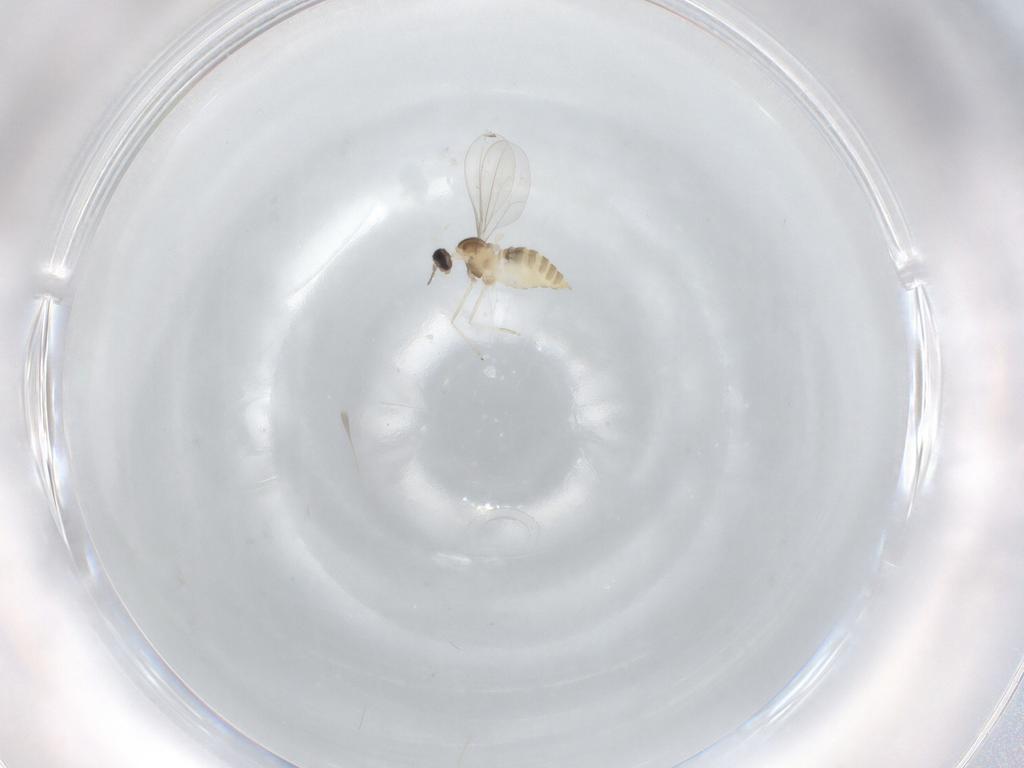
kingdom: Animalia
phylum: Arthropoda
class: Insecta
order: Diptera
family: Cecidomyiidae
